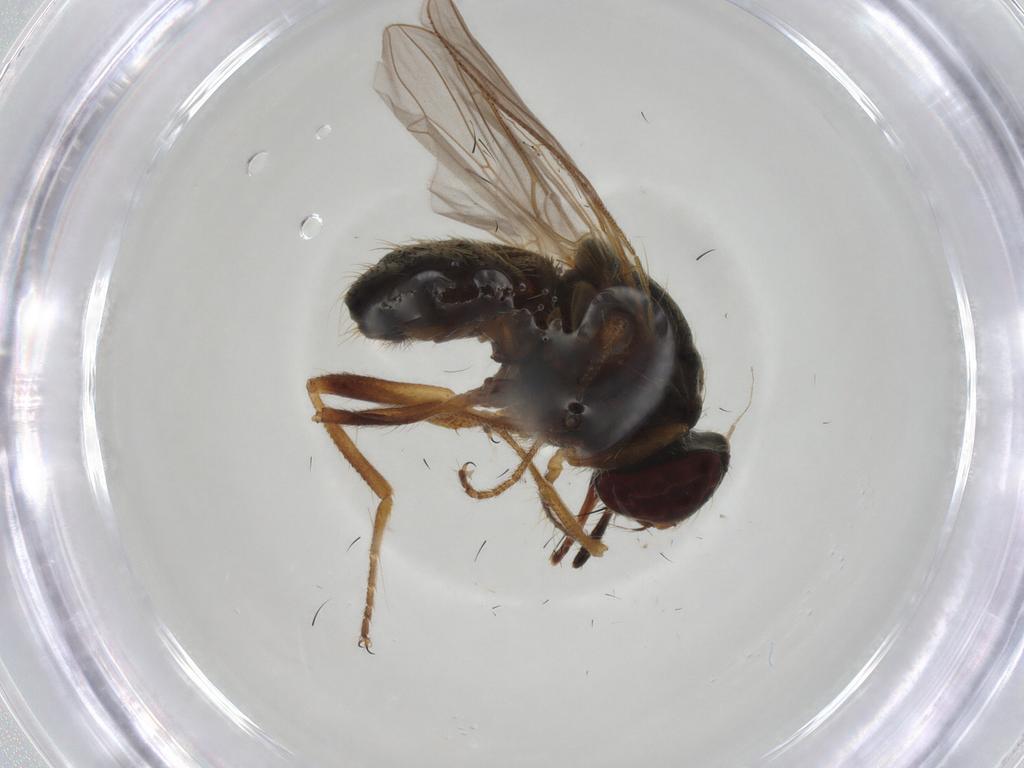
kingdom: Animalia
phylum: Arthropoda
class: Insecta
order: Diptera
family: Cecidomyiidae
